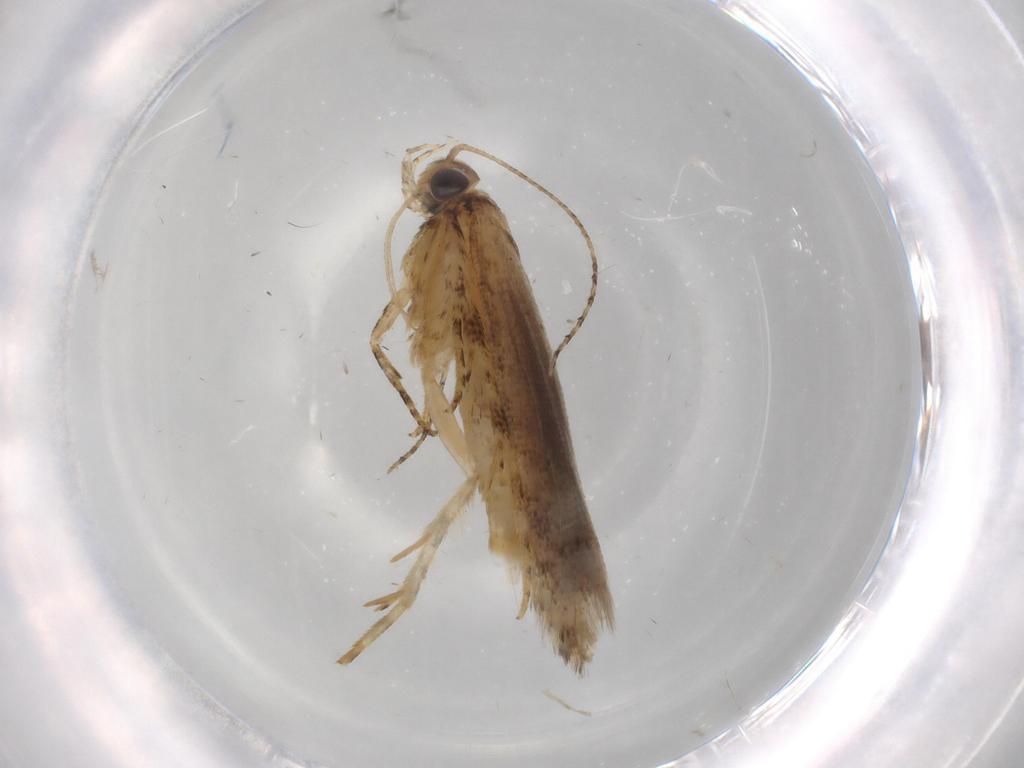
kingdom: Animalia
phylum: Arthropoda
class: Insecta
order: Lepidoptera
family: Gelechiidae
